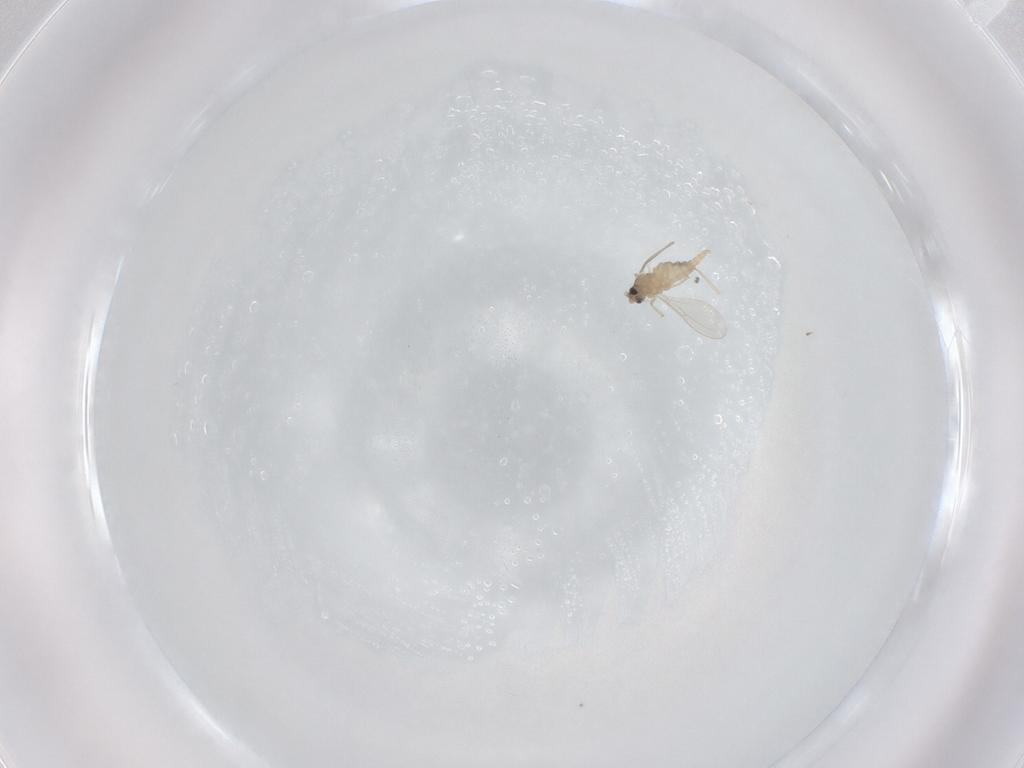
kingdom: Animalia
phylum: Arthropoda
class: Insecta
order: Diptera
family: Cecidomyiidae
